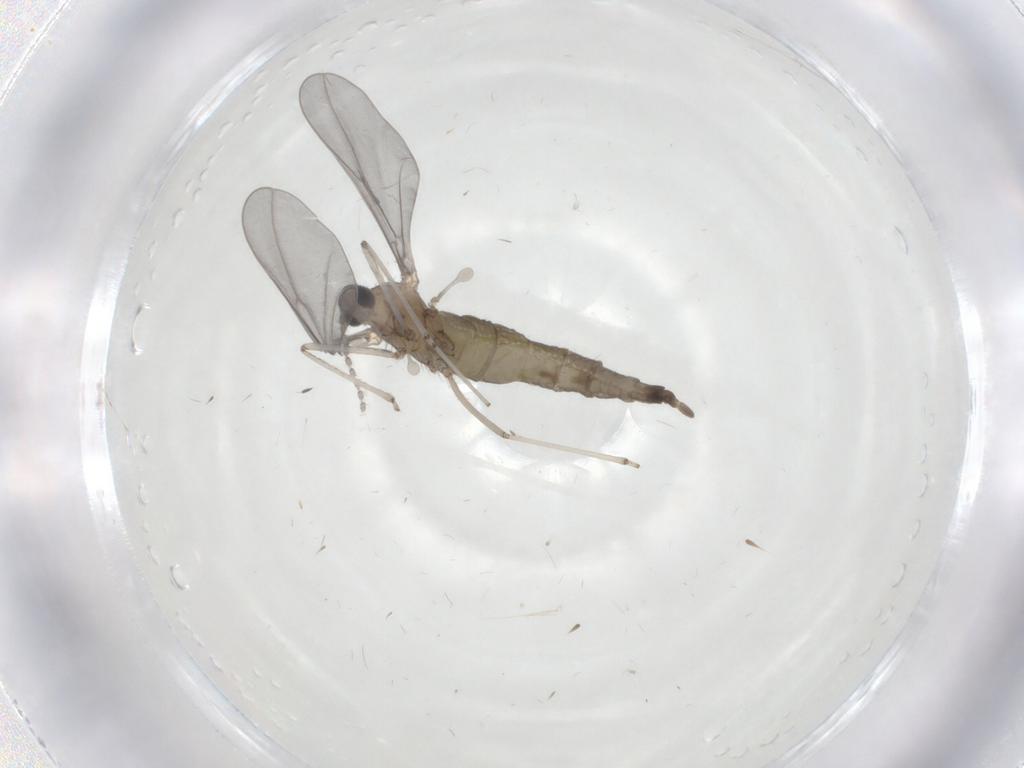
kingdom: Animalia
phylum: Arthropoda
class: Insecta
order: Diptera
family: Cecidomyiidae
